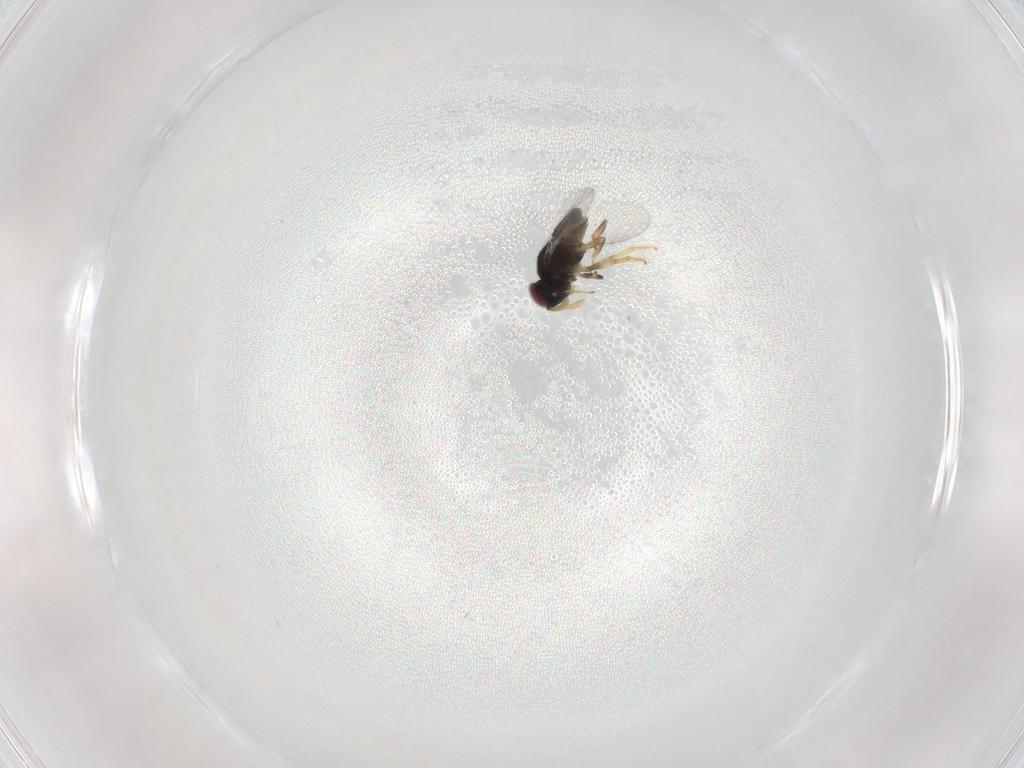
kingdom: Animalia
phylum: Arthropoda
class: Insecta
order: Hymenoptera
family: Encyrtidae
